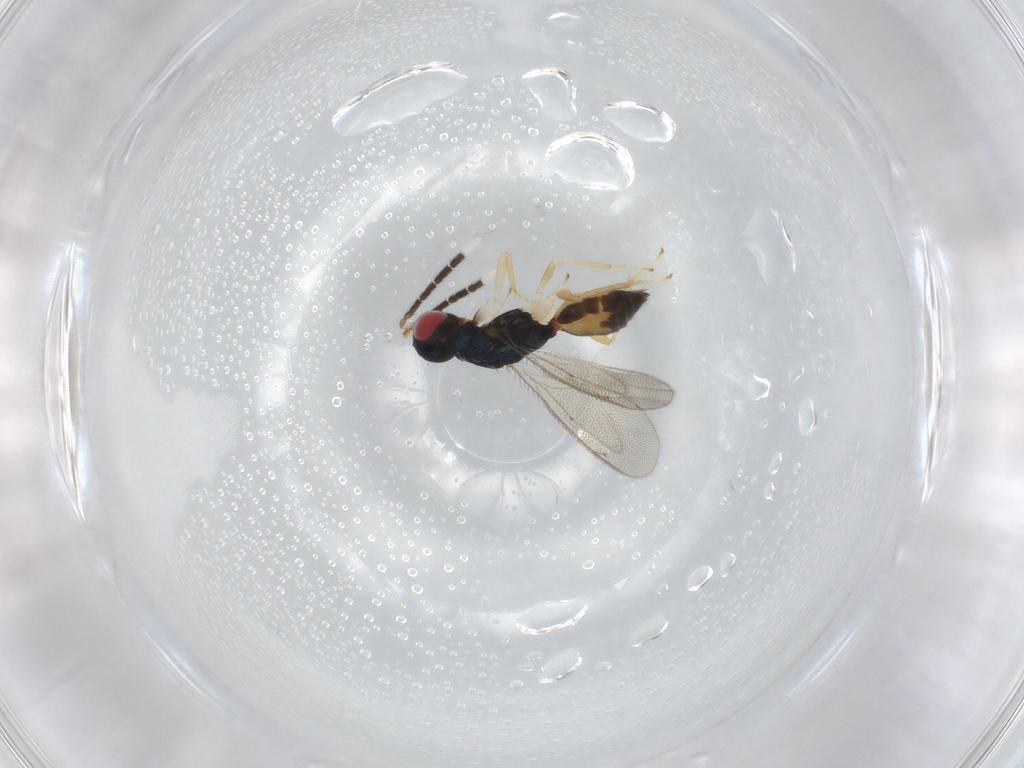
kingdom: Animalia
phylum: Arthropoda
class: Insecta
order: Hymenoptera
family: Eulophidae
